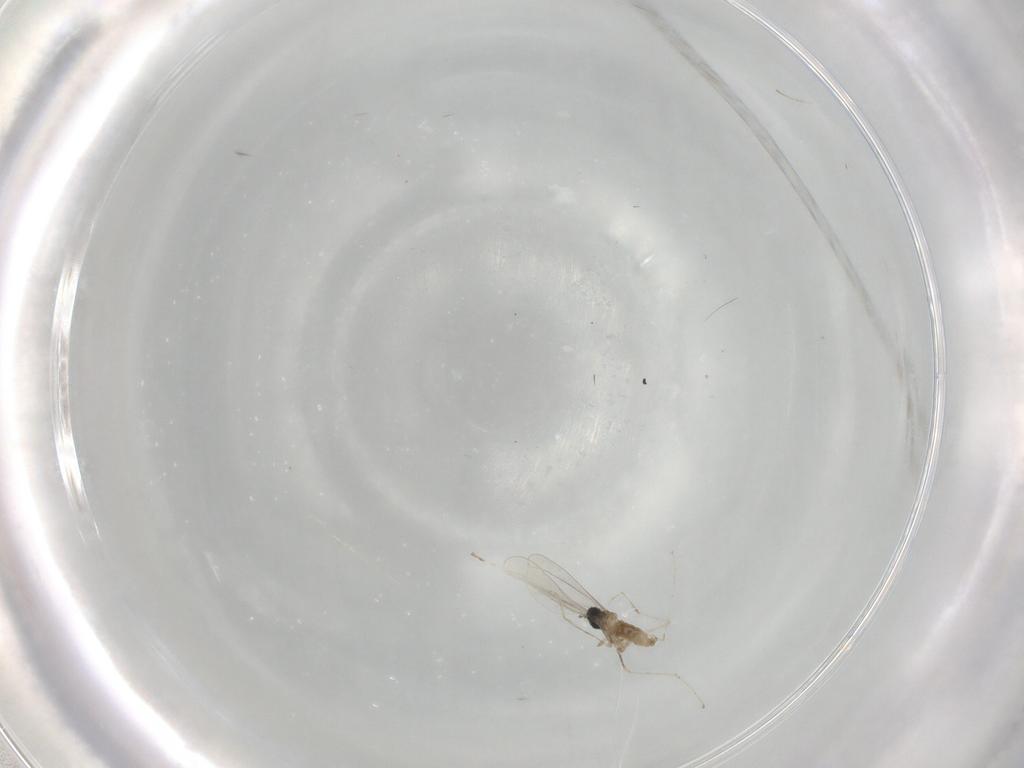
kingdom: Animalia
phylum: Arthropoda
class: Insecta
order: Diptera
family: Cecidomyiidae
